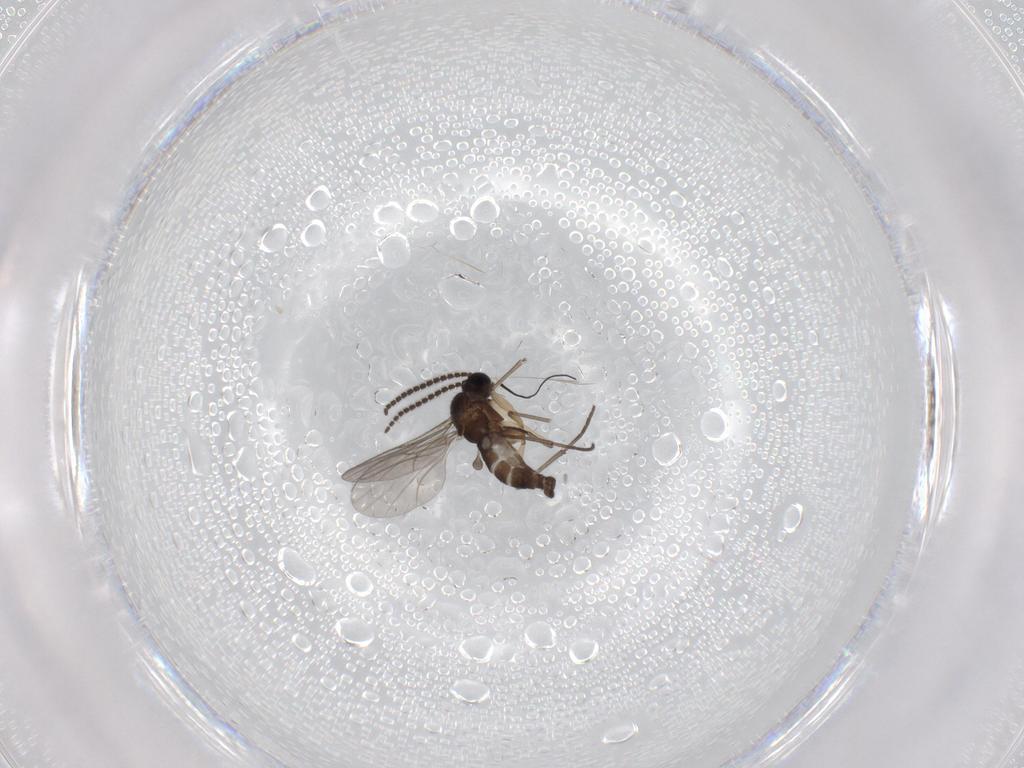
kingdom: Animalia
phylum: Arthropoda
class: Insecta
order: Diptera
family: Sciaridae
